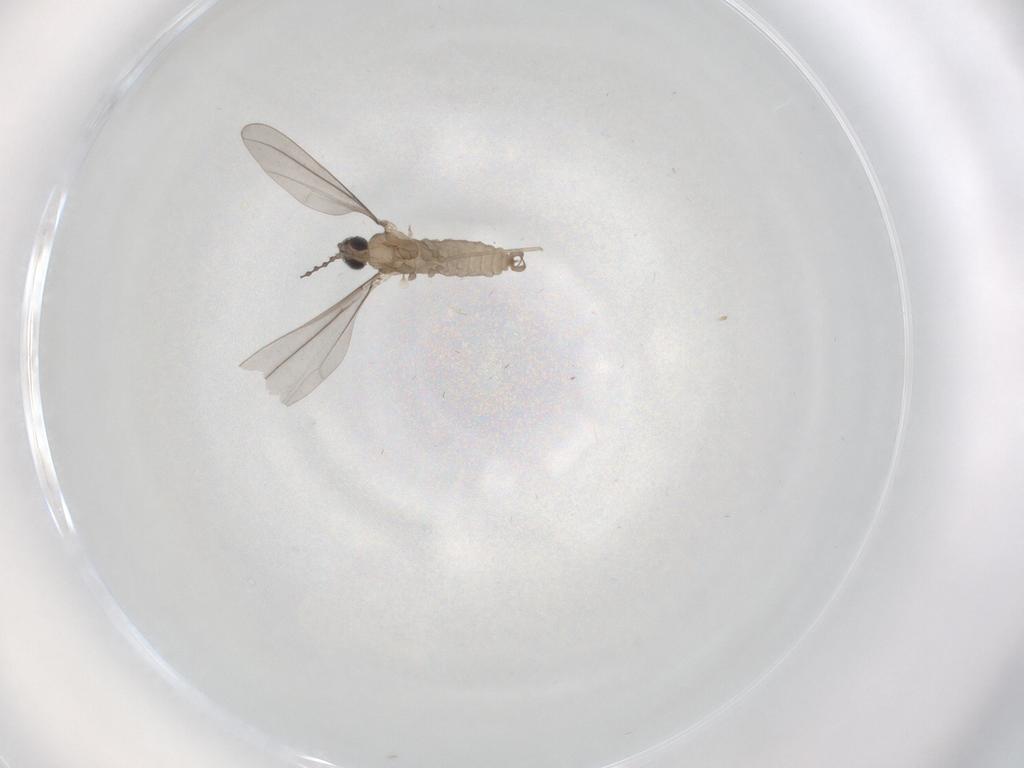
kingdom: Animalia
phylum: Arthropoda
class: Insecta
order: Diptera
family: Cecidomyiidae
